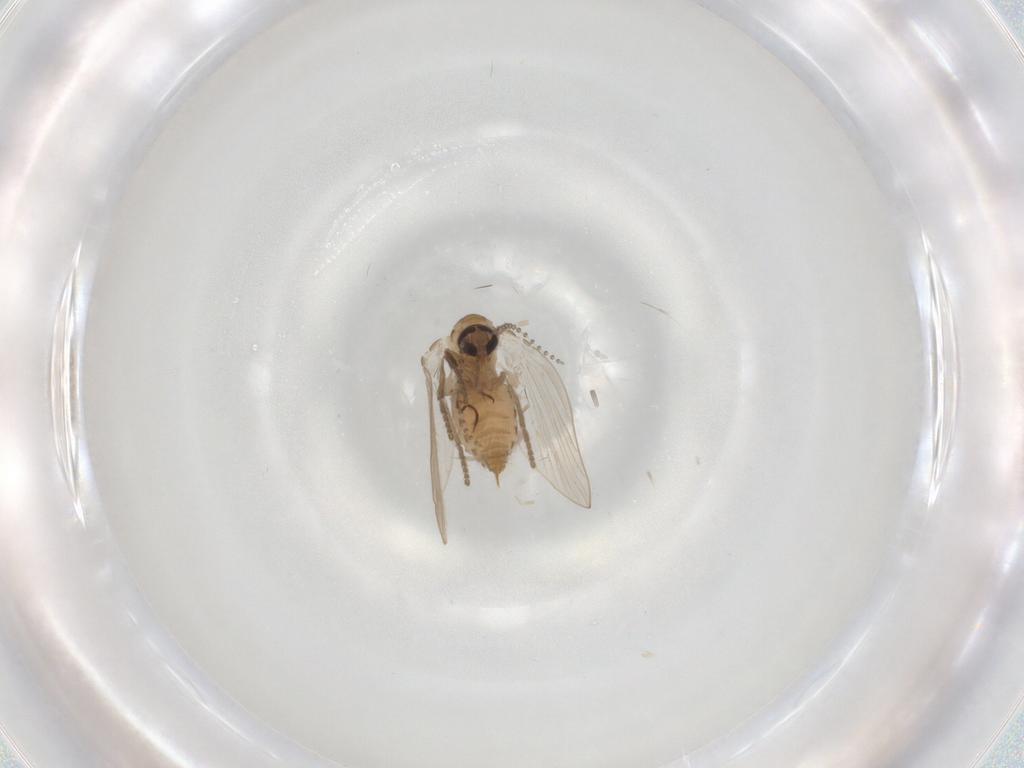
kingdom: Animalia
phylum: Arthropoda
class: Insecta
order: Diptera
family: Psychodidae
